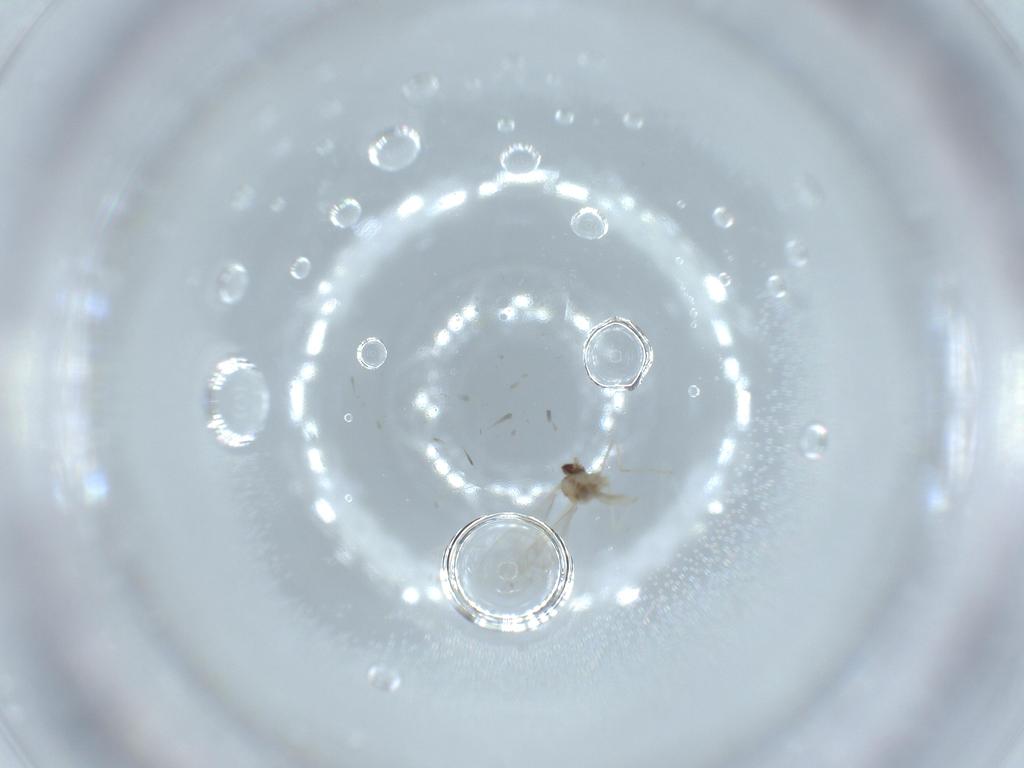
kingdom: Animalia
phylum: Arthropoda
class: Insecta
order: Diptera
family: Cecidomyiidae
